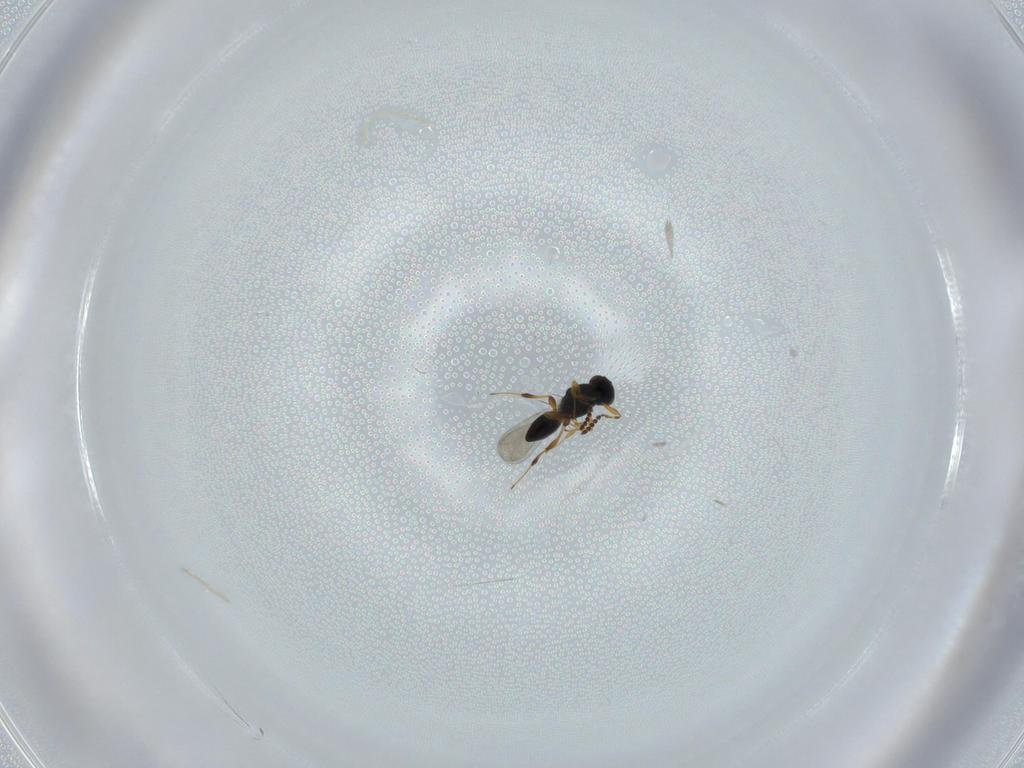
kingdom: Animalia
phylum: Arthropoda
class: Insecta
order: Hymenoptera
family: Platygastridae
